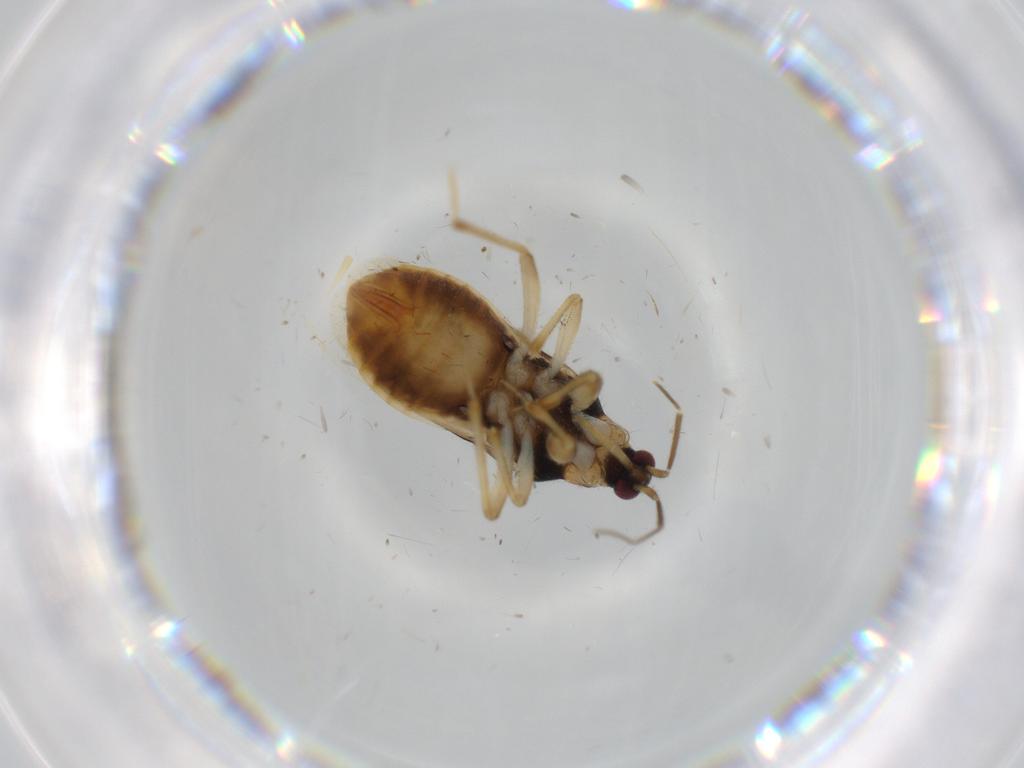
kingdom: Animalia
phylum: Arthropoda
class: Insecta
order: Hemiptera
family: Nabidae
